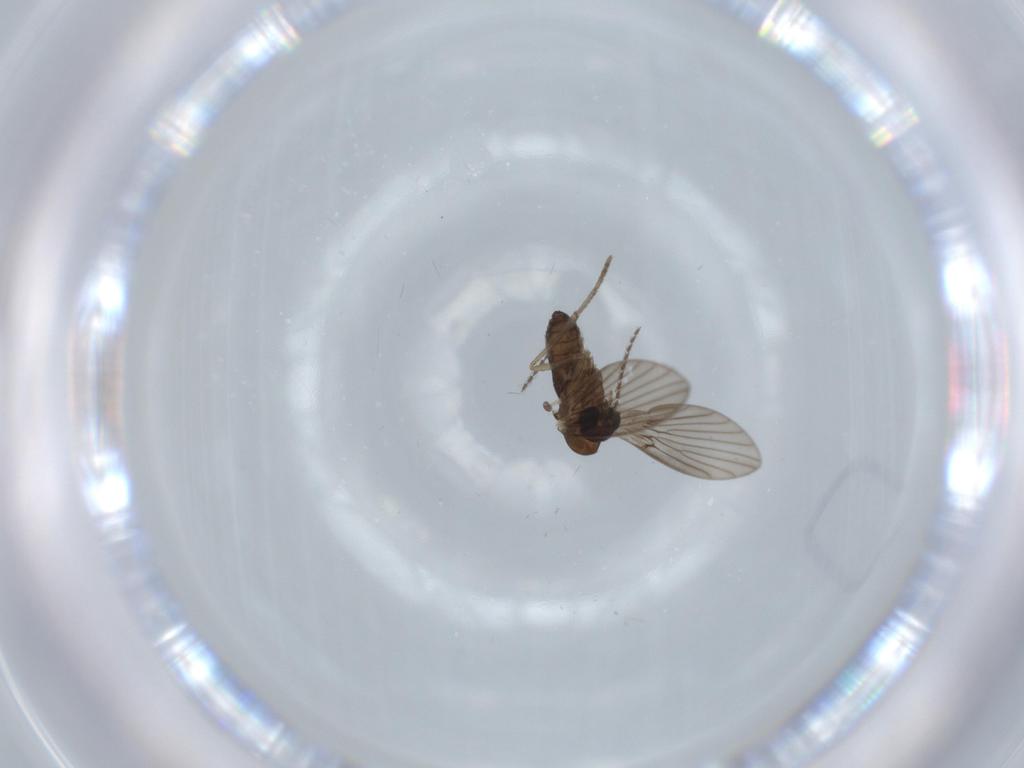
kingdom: Animalia
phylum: Arthropoda
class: Insecta
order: Diptera
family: Psychodidae
